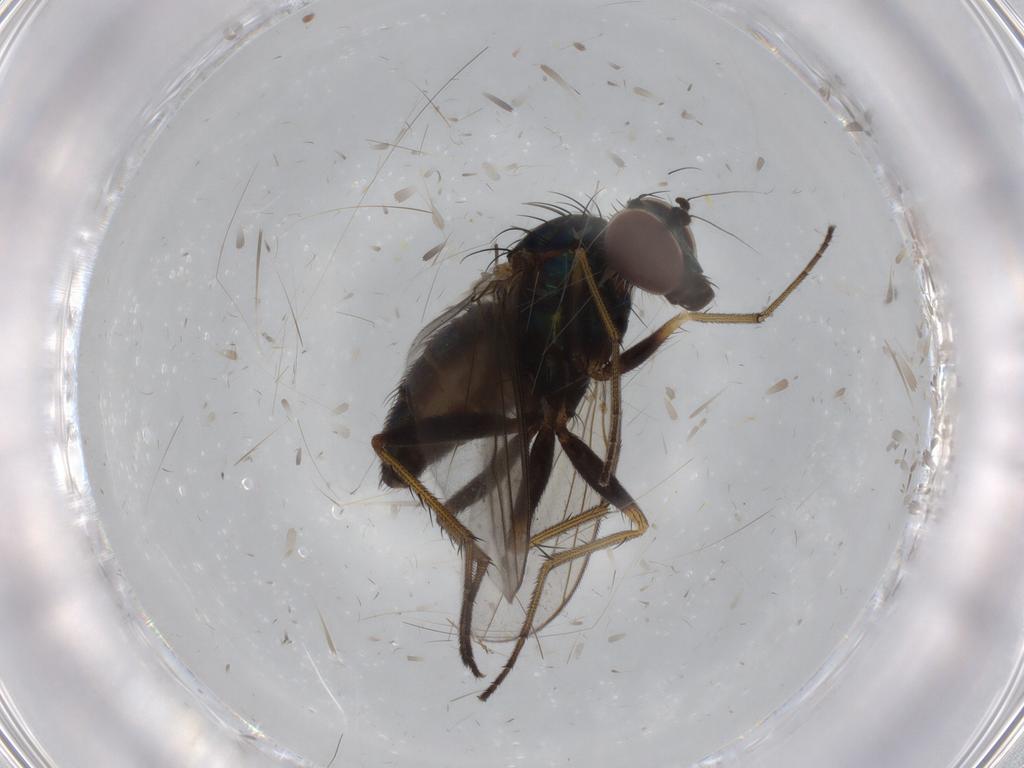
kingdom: Animalia
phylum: Arthropoda
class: Insecta
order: Diptera
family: Dolichopodidae
